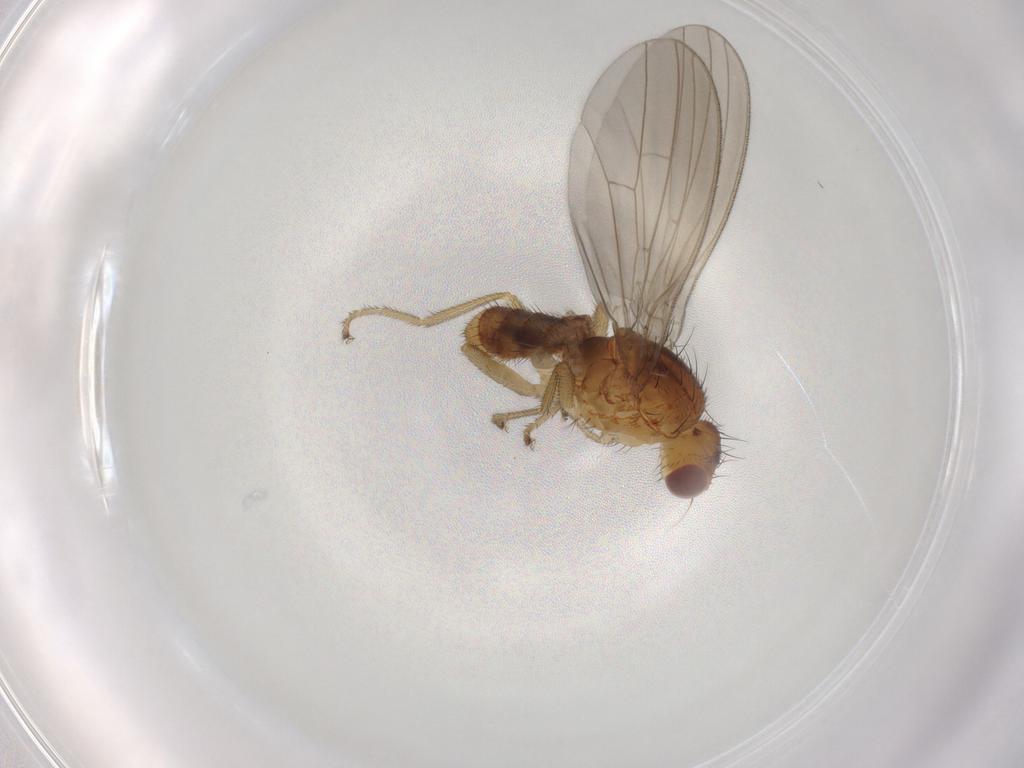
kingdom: Animalia
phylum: Arthropoda
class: Insecta
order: Diptera
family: Natalimyzidae
